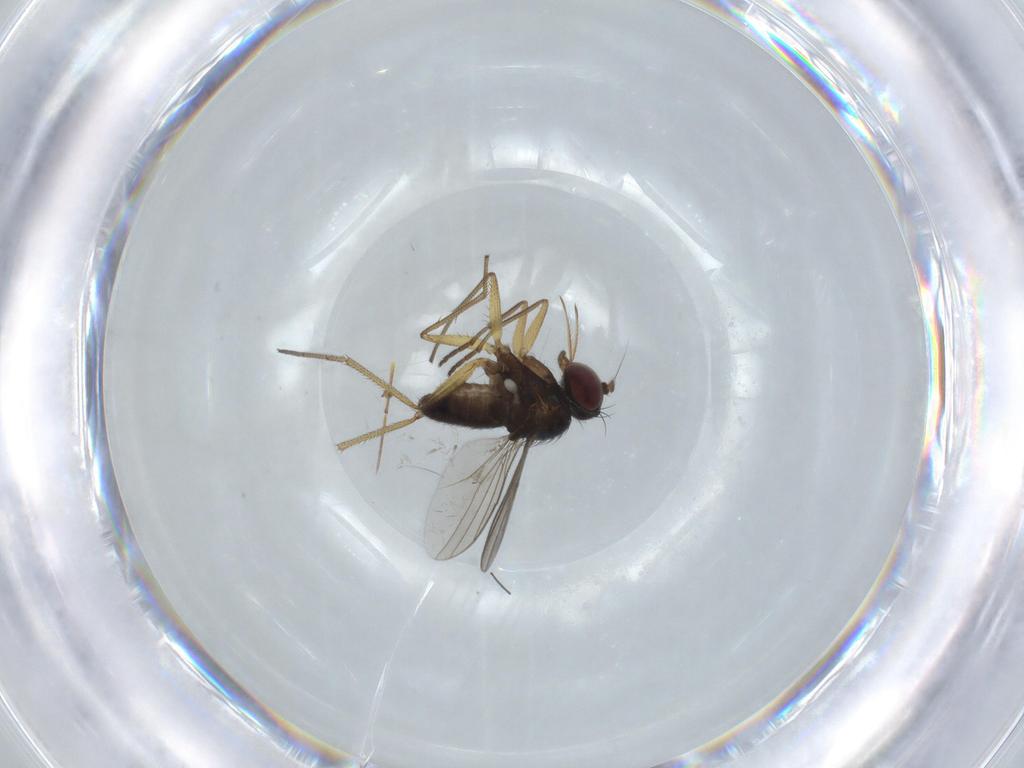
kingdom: Animalia
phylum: Arthropoda
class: Insecta
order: Diptera
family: Dolichopodidae
